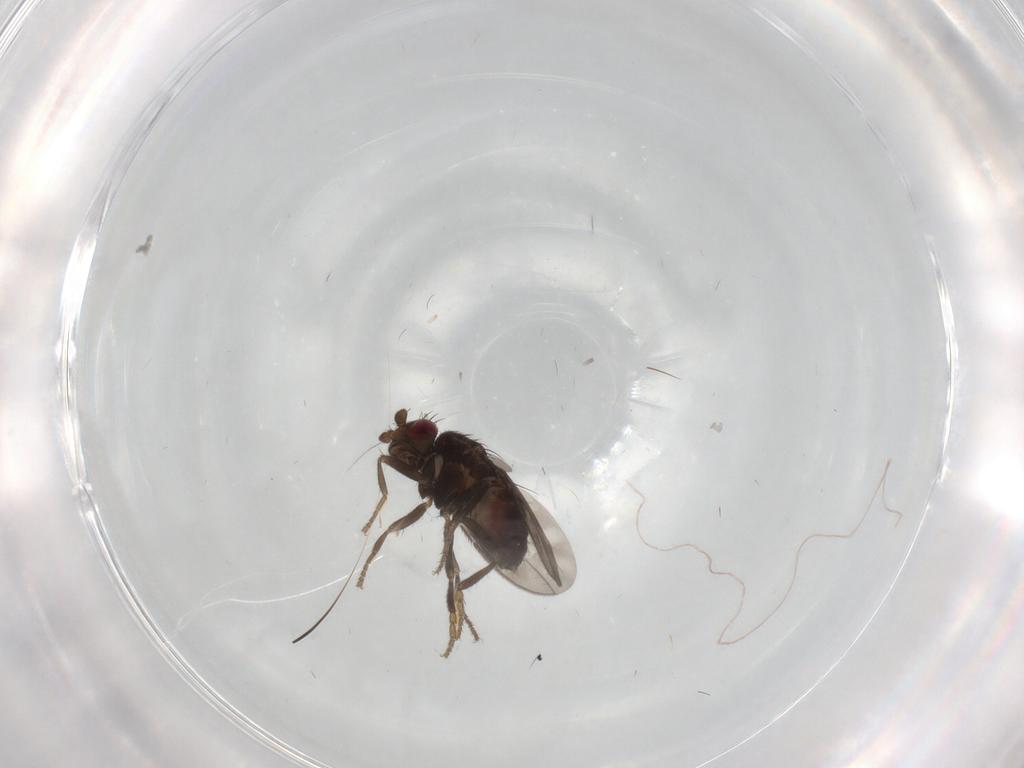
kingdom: Animalia
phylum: Arthropoda
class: Insecta
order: Diptera
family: Sphaeroceridae
